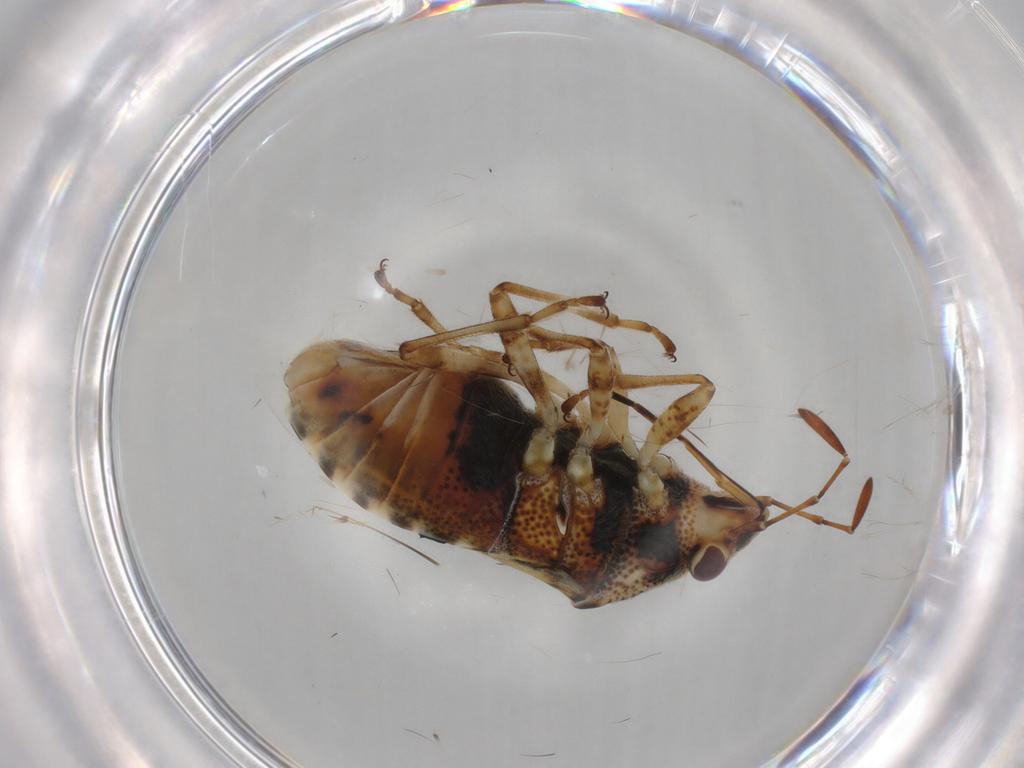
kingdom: Animalia
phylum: Arthropoda
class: Insecta
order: Hemiptera
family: Lygaeidae
